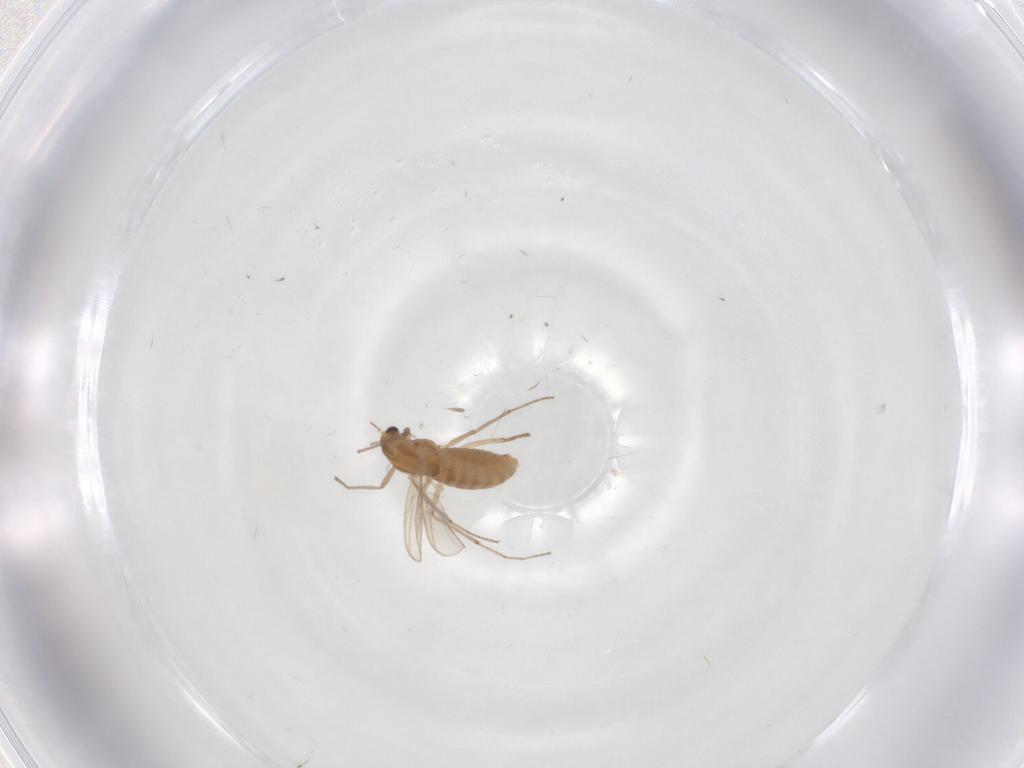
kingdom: Animalia
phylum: Arthropoda
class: Insecta
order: Diptera
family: Chironomidae
